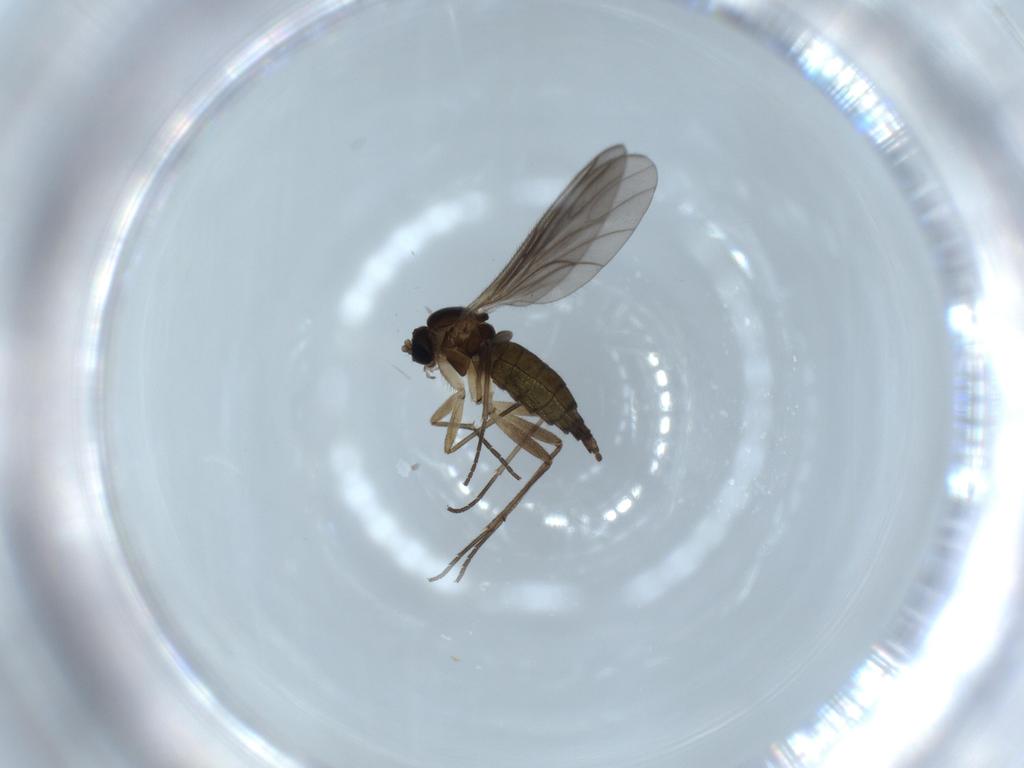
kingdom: Animalia
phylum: Arthropoda
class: Insecta
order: Diptera
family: Sciaridae
